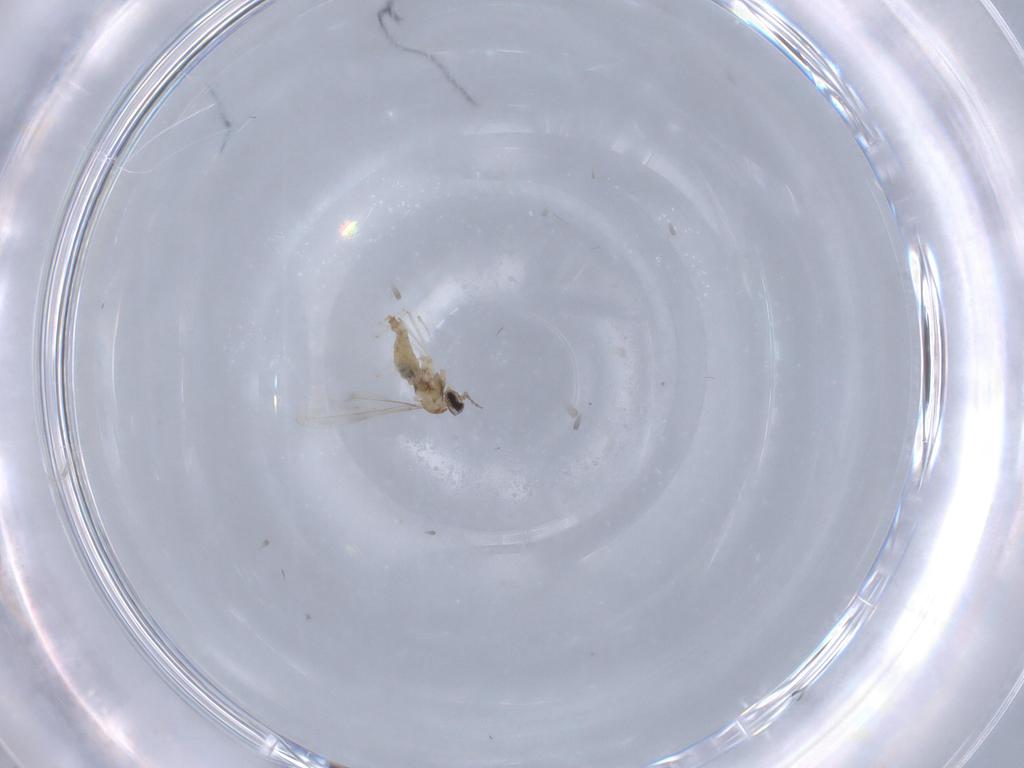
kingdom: Animalia
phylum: Arthropoda
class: Insecta
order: Diptera
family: Cecidomyiidae
